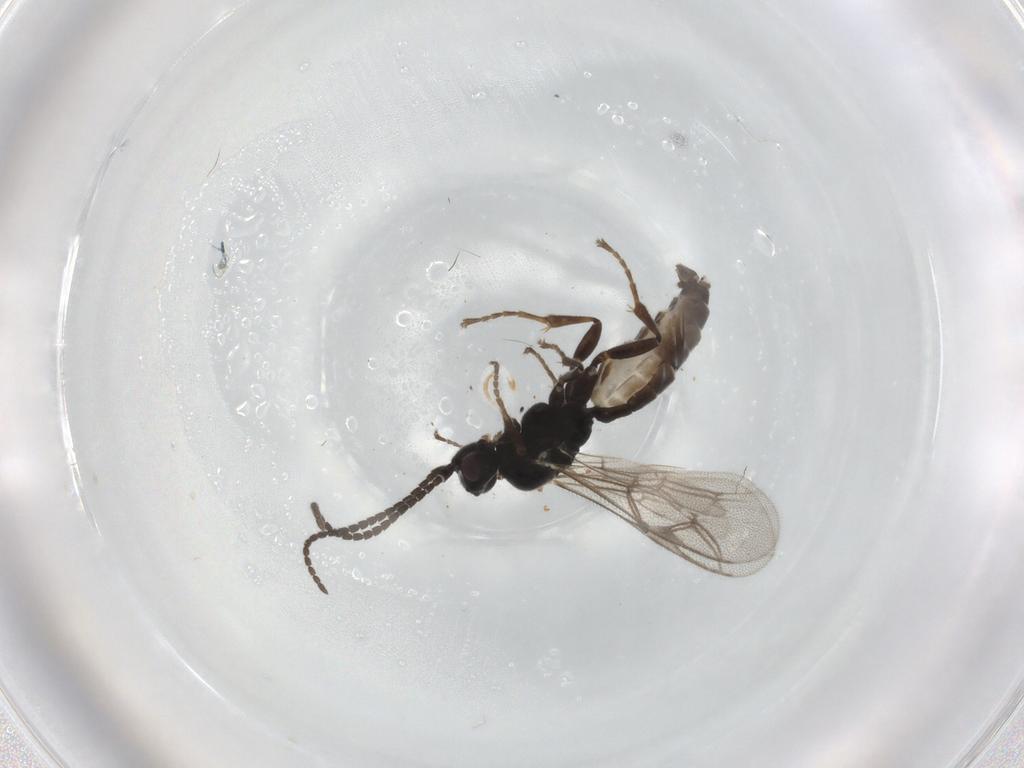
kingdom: Animalia
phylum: Arthropoda
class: Insecta
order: Hymenoptera
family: Ichneumonidae
